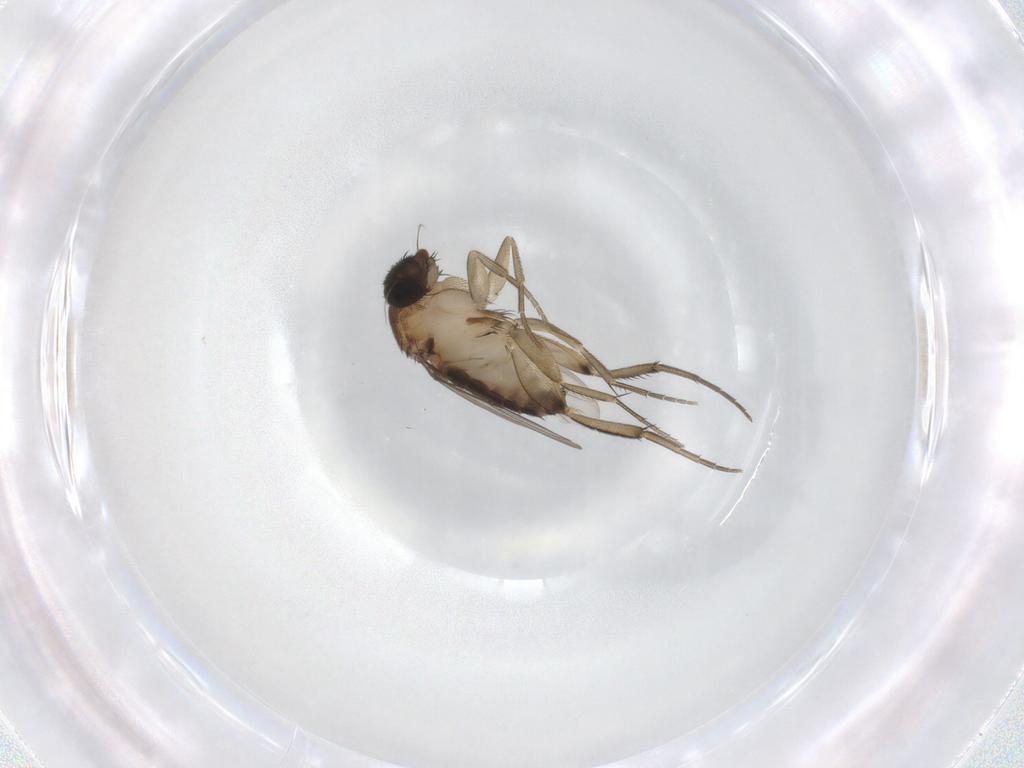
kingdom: Animalia
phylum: Arthropoda
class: Insecta
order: Diptera
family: Phoridae
